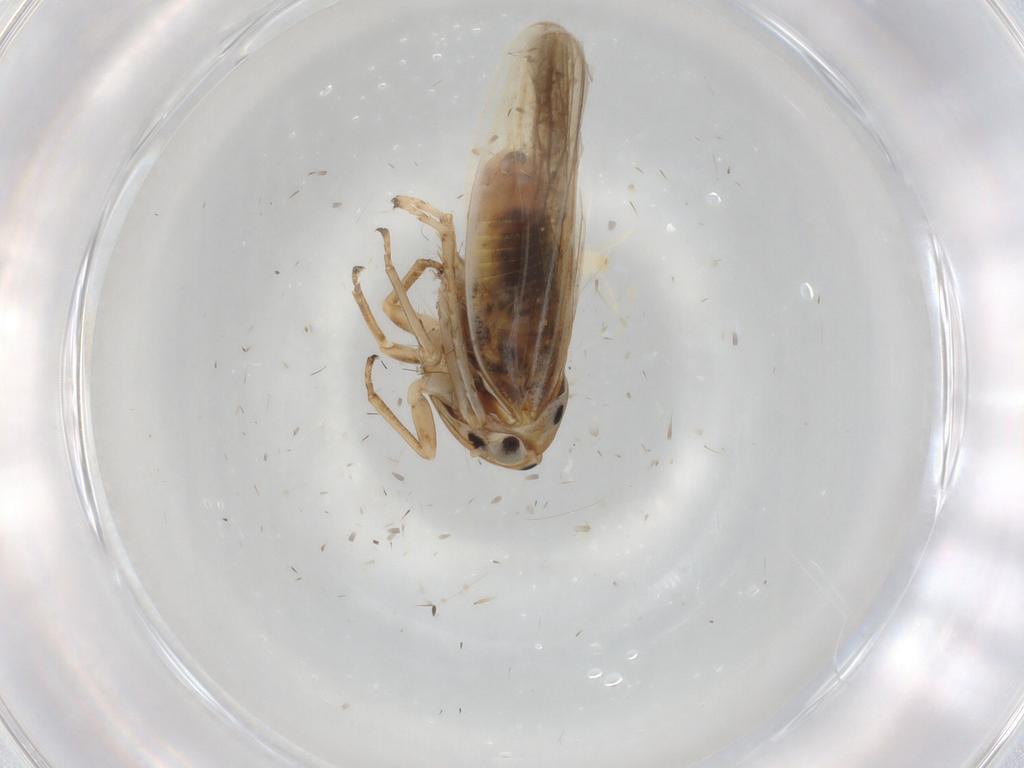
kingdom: Animalia
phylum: Arthropoda
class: Insecta
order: Hemiptera
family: Cicadellidae
